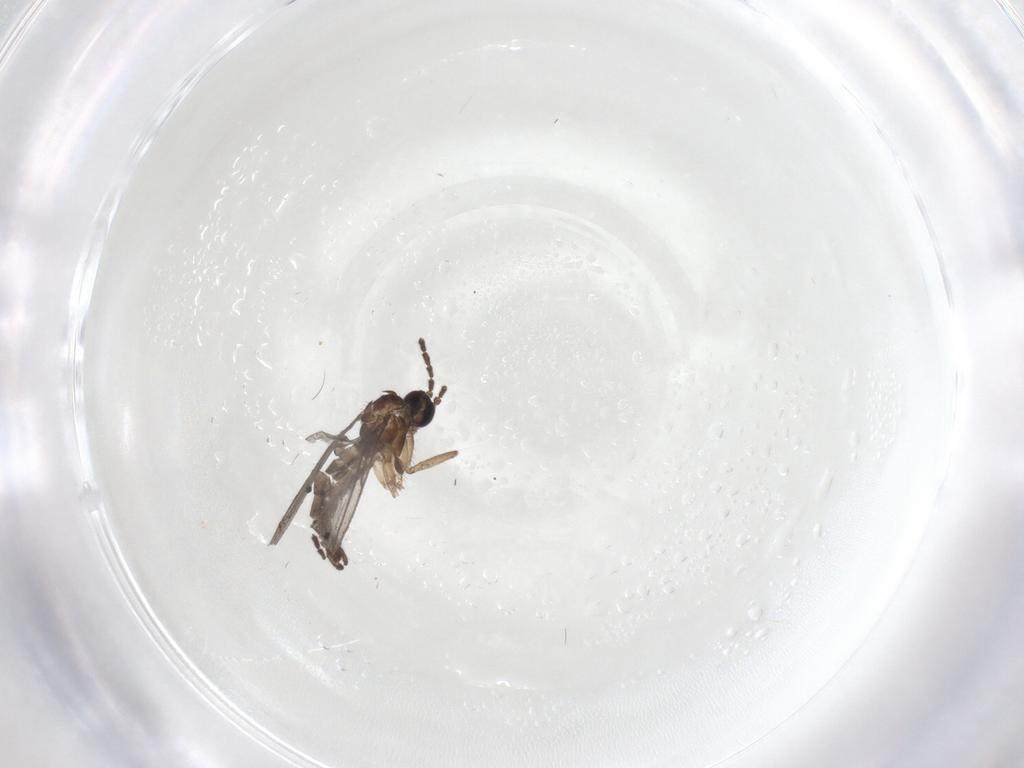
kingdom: Animalia
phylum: Arthropoda
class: Insecta
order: Diptera
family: Sciaridae
